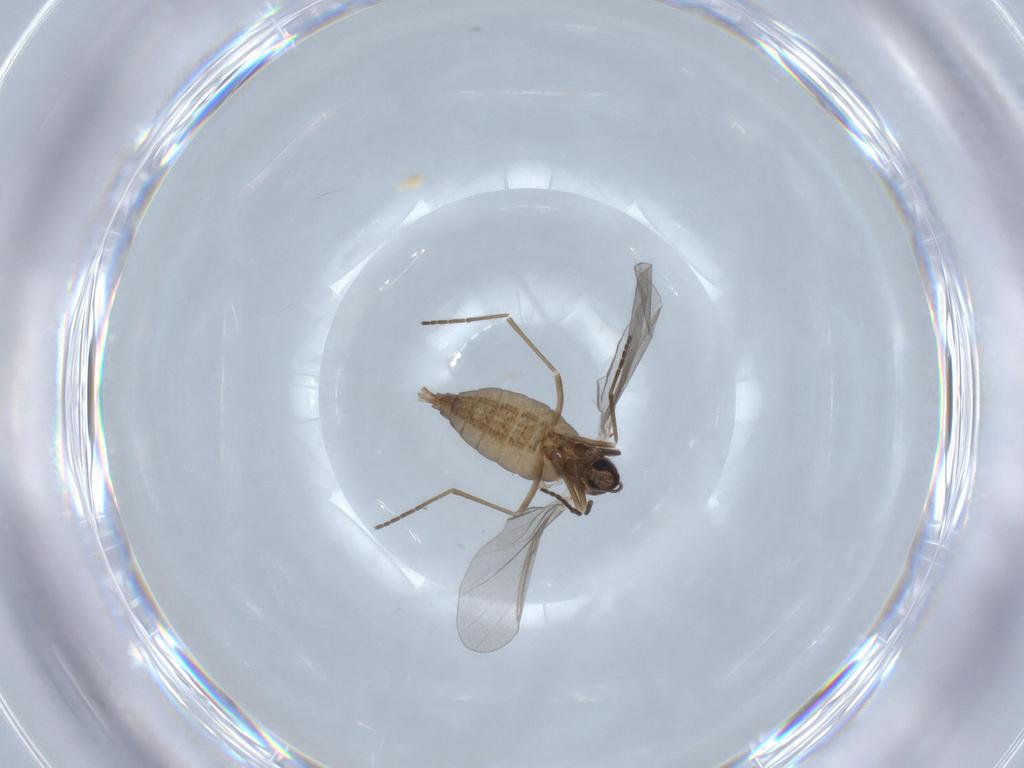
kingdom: Animalia
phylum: Arthropoda
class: Insecta
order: Diptera
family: Cecidomyiidae
